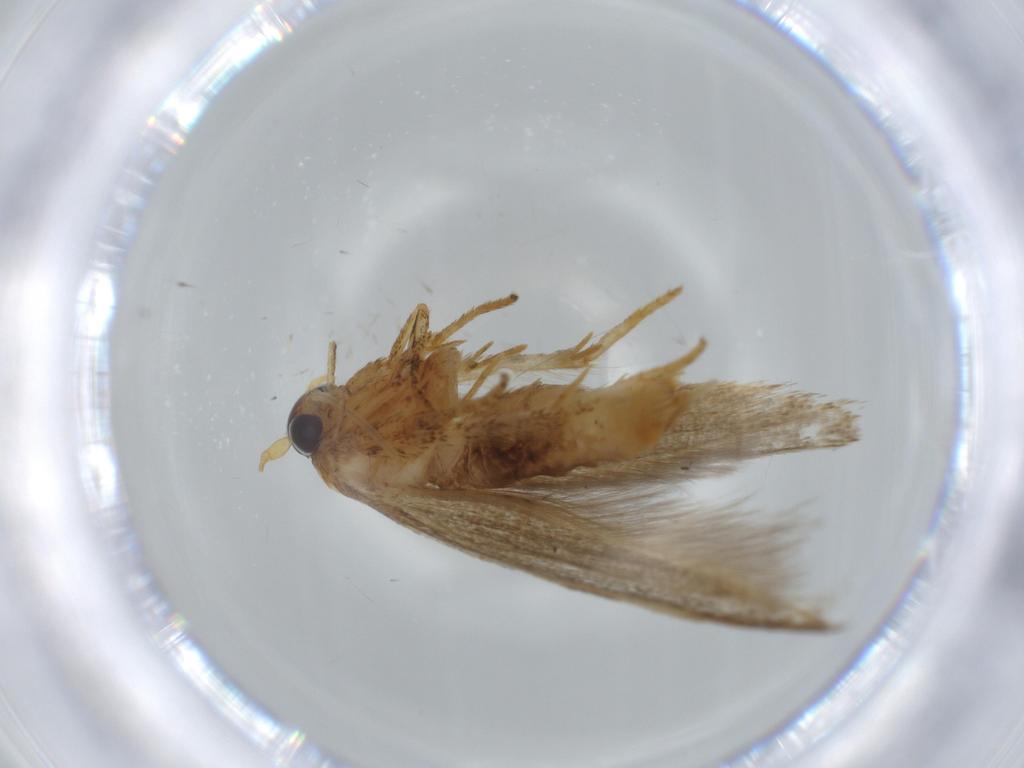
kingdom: Animalia
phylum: Arthropoda
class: Insecta
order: Lepidoptera
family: Coleophoridae
